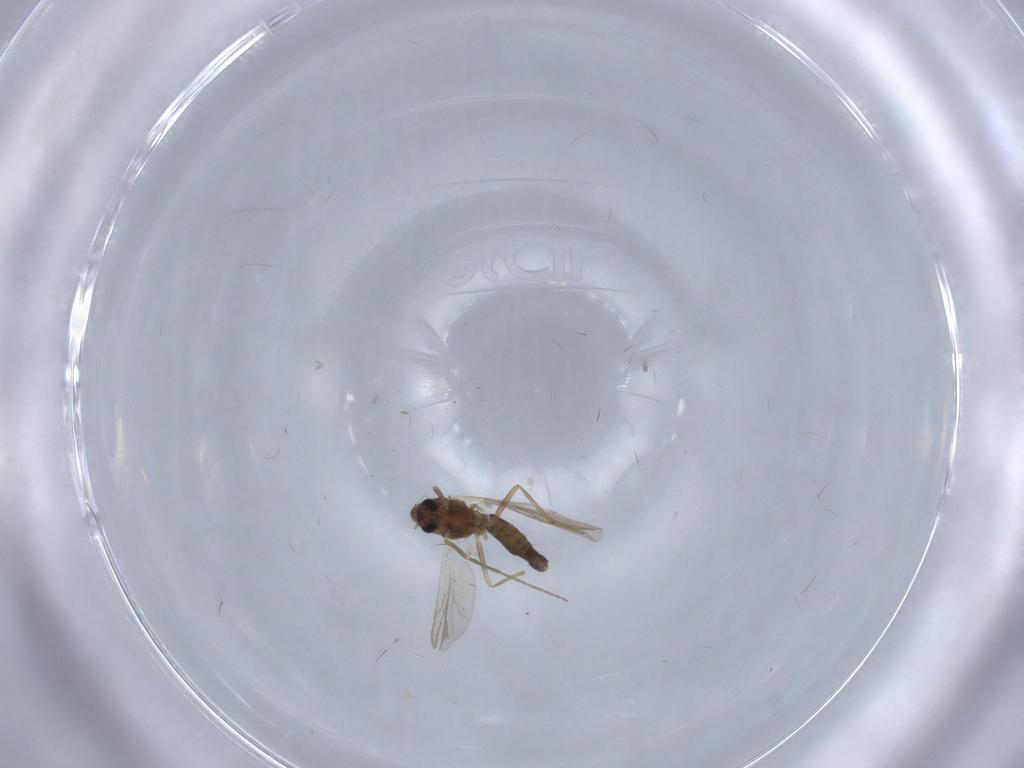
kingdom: Animalia
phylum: Arthropoda
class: Insecta
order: Diptera
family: Chironomidae
